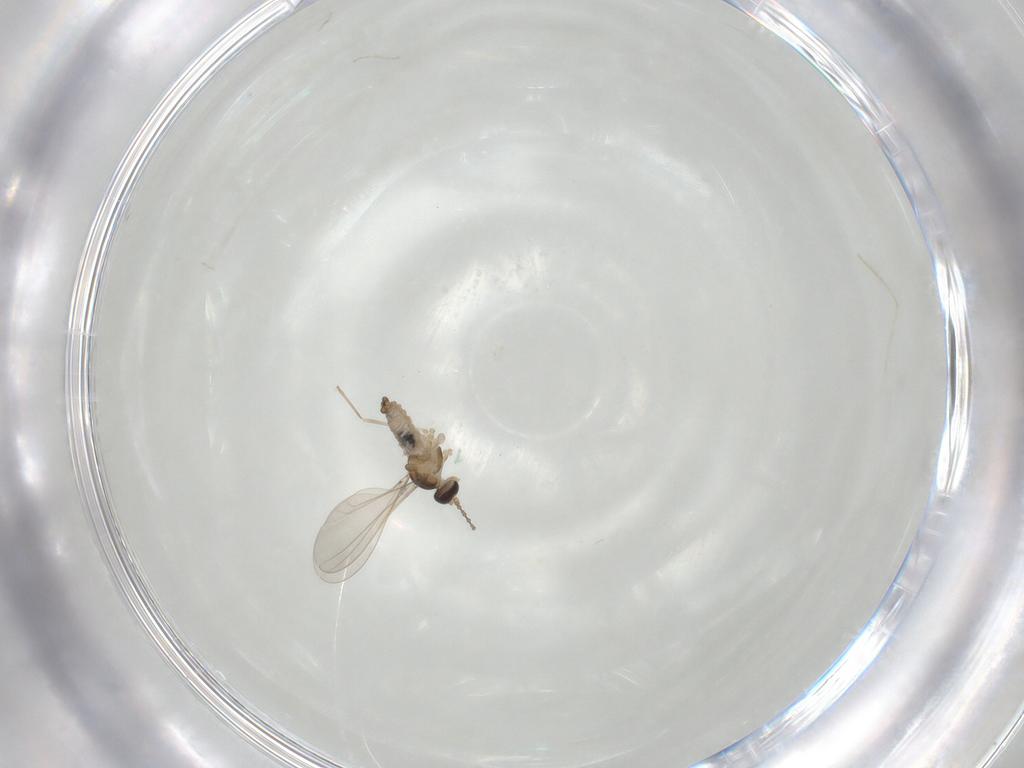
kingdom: Animalia
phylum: Arthropoda
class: Insecta
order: Diptera
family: Cecidomyiidae
